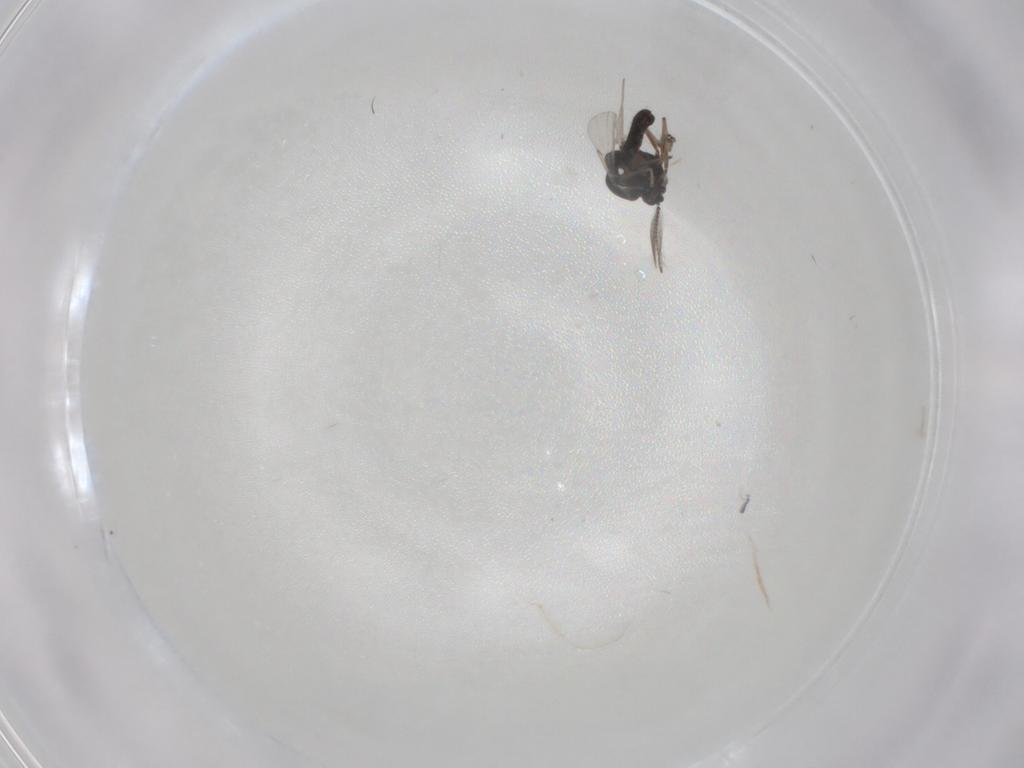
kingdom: Animalia
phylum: Arthropoda
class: Insecta
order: Diptera
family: Ceratopogonidae
